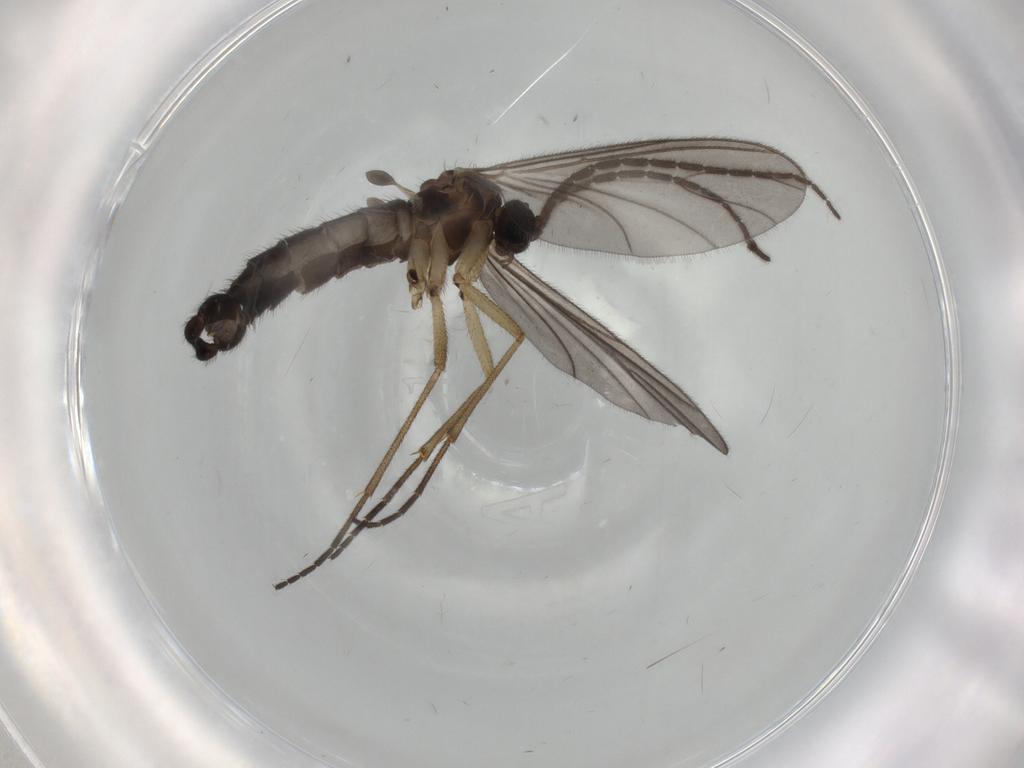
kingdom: Animalia
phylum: Arthropoda
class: Insecta
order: Diptera
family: Sciaridae
